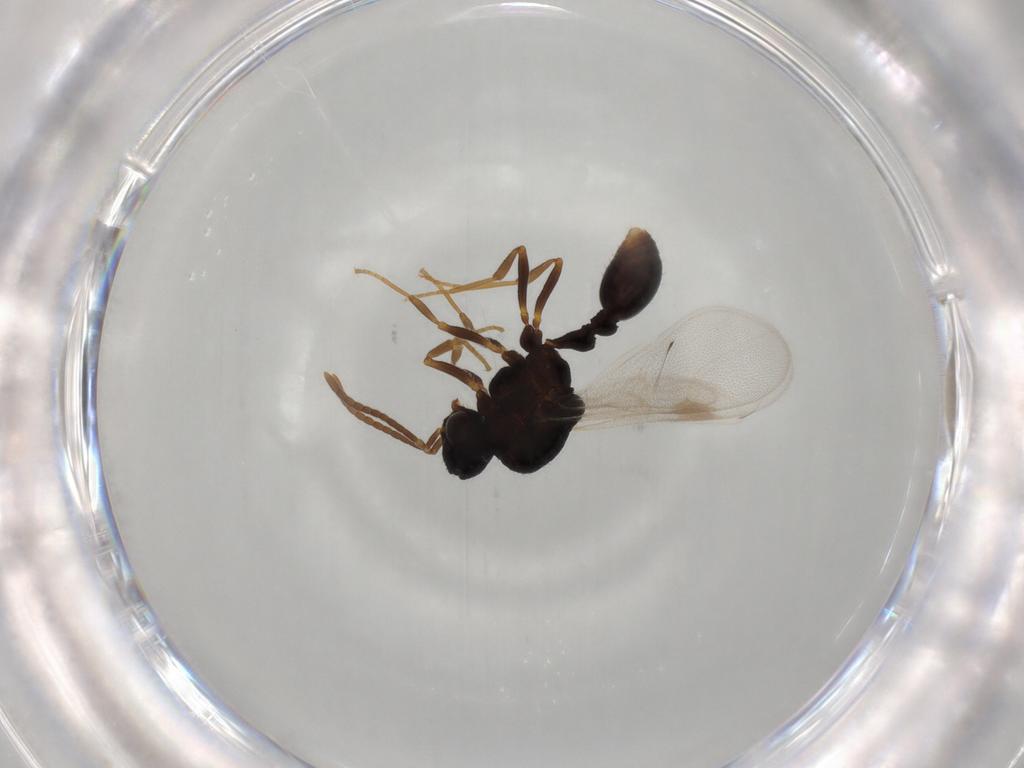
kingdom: Animalia
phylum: Arthropoda
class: Insecta
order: Hymenoptera
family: Formicidae
